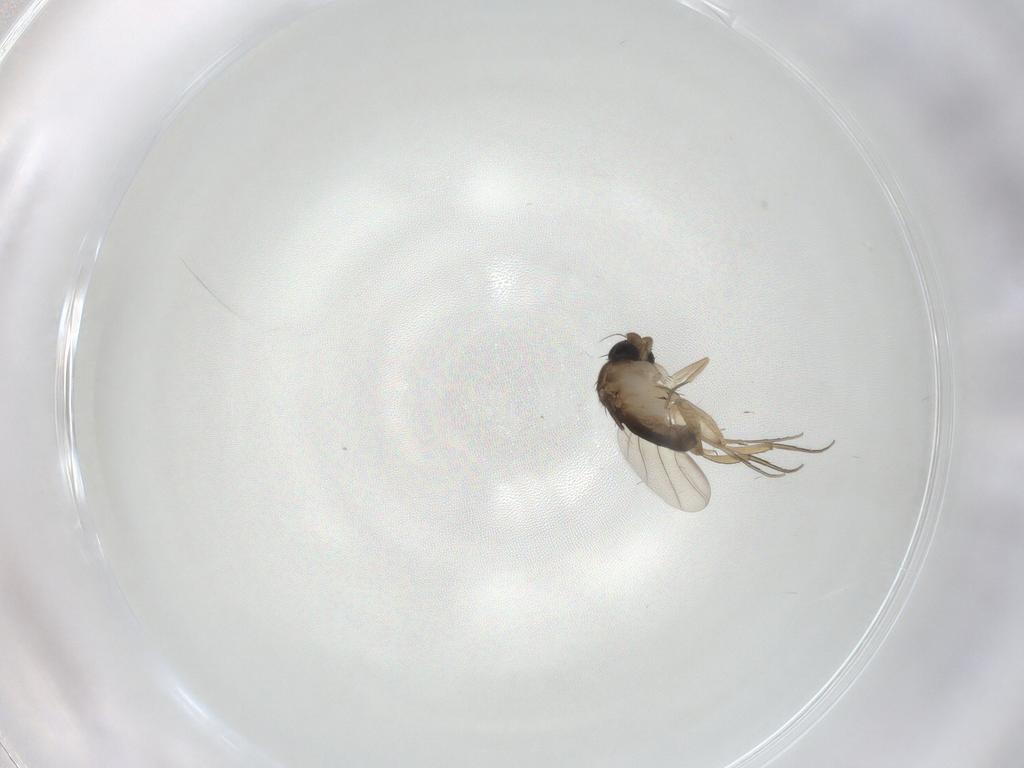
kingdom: Animalia
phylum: Arthropoda
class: Insecta
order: Diptera
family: Phoridae
